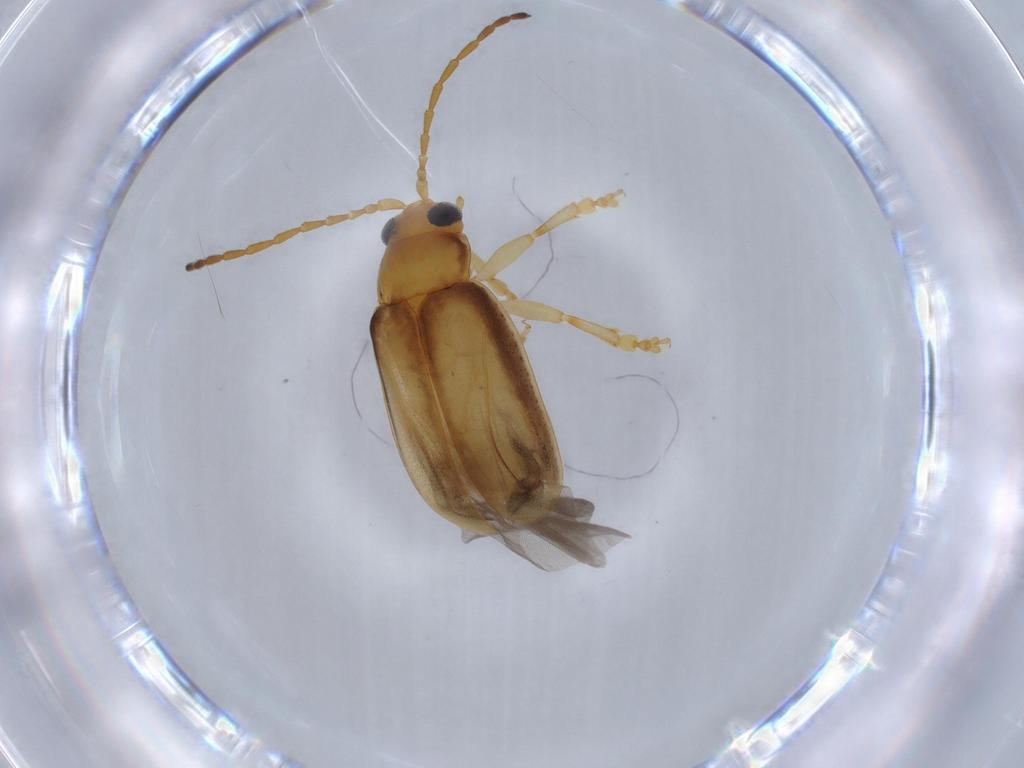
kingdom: Animalia
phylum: Arthropoda
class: Insecta
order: Coleoptera
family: Chrysomelidae
